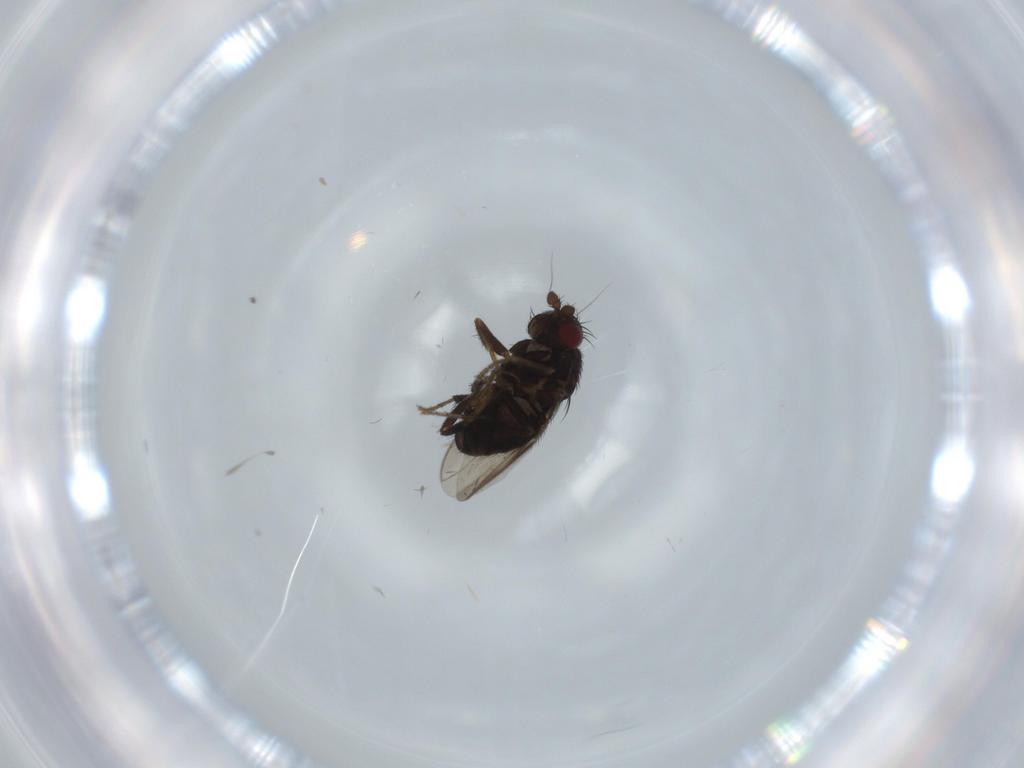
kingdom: Animalia
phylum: Arthropoda
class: Insecta
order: Diptera
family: Sphaeroceridae
